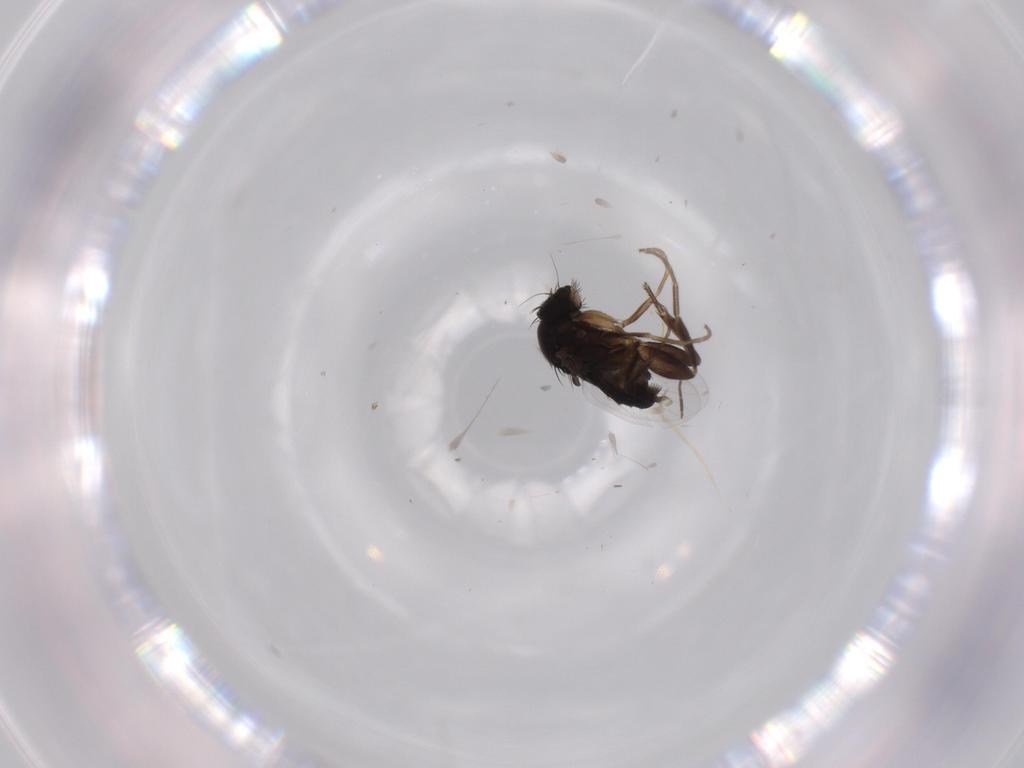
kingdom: Animalia
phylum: Arthropoda
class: Insecta
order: Diptera
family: Phoridae
